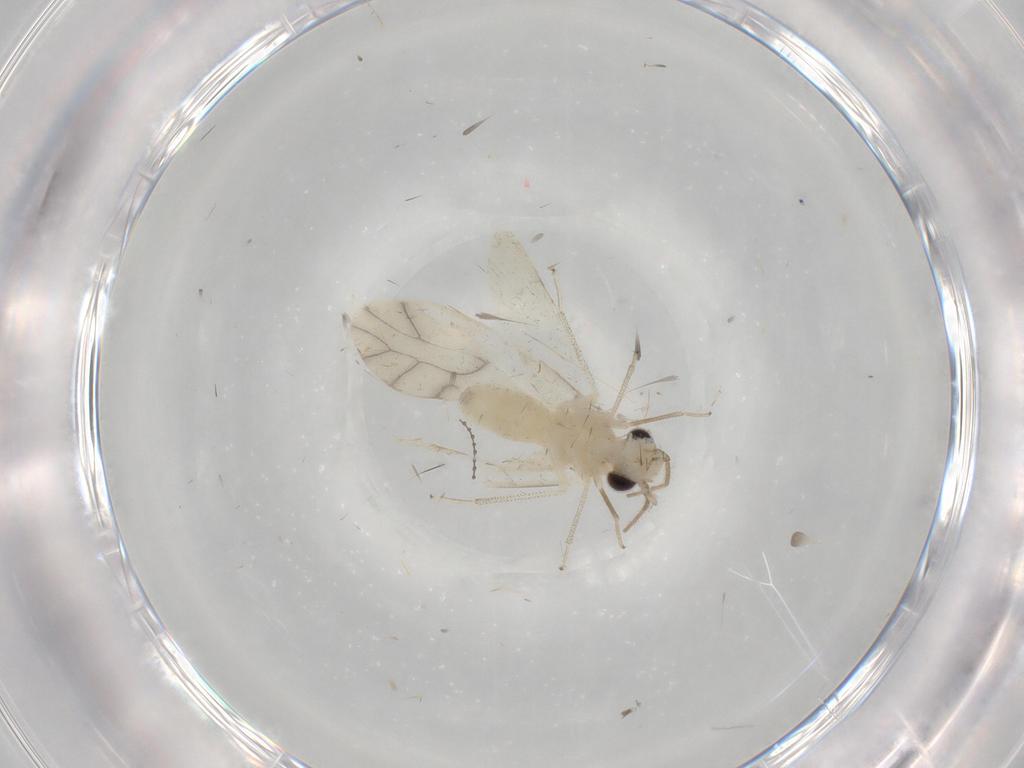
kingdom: Animalia
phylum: Arthropoda
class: Insecta
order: Psocodea
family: Caeciliusidae
